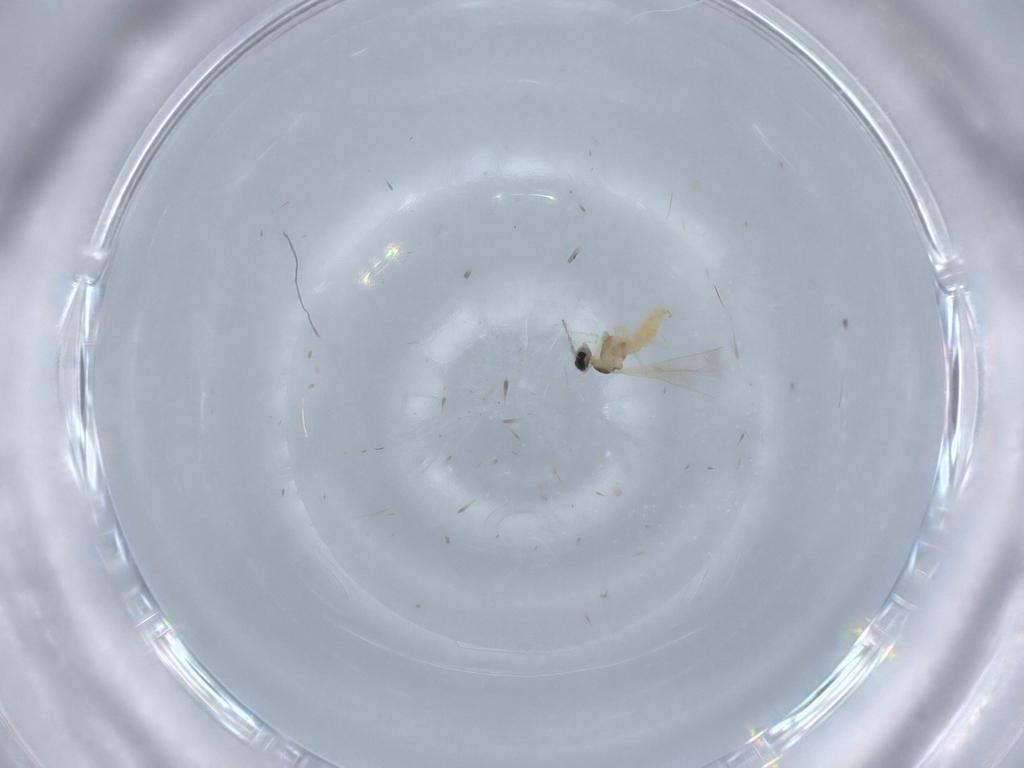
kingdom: Animalia
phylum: Arthropoda
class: Insecta
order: Diptera
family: Cecidomyiidae
